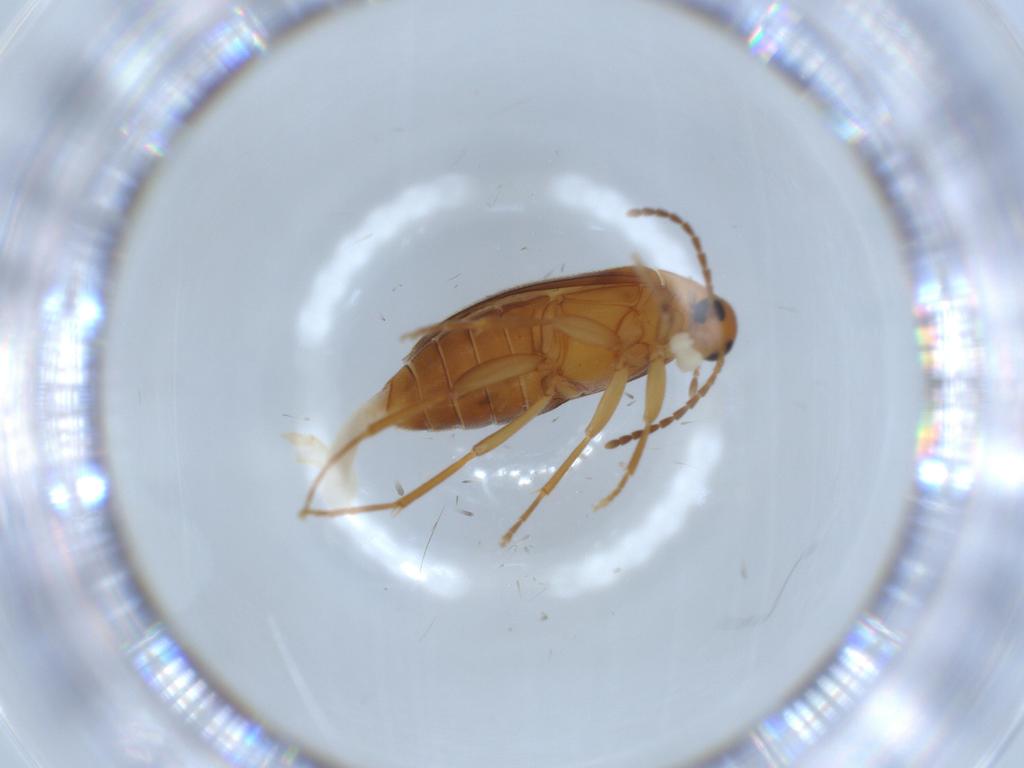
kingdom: Animalia
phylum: Arthropoda
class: Insecta
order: Coleoptera
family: Scraptiidae
